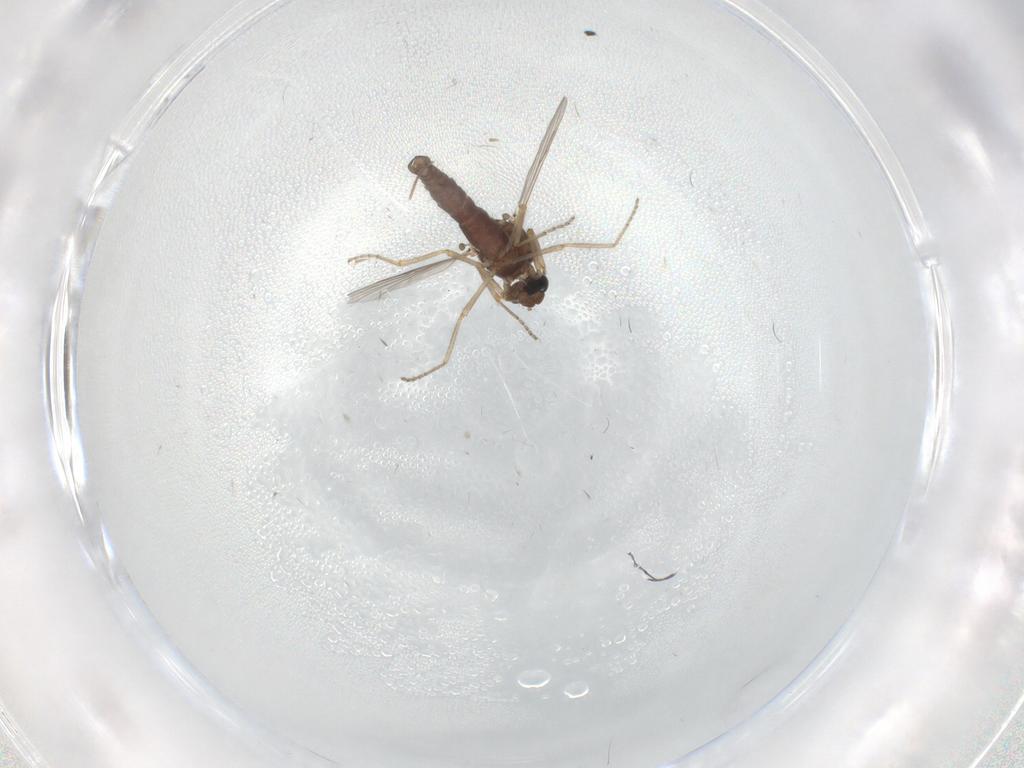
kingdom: Animalia
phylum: Arthropoda
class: Insecta
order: Diptera
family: Ceratopogonidae
